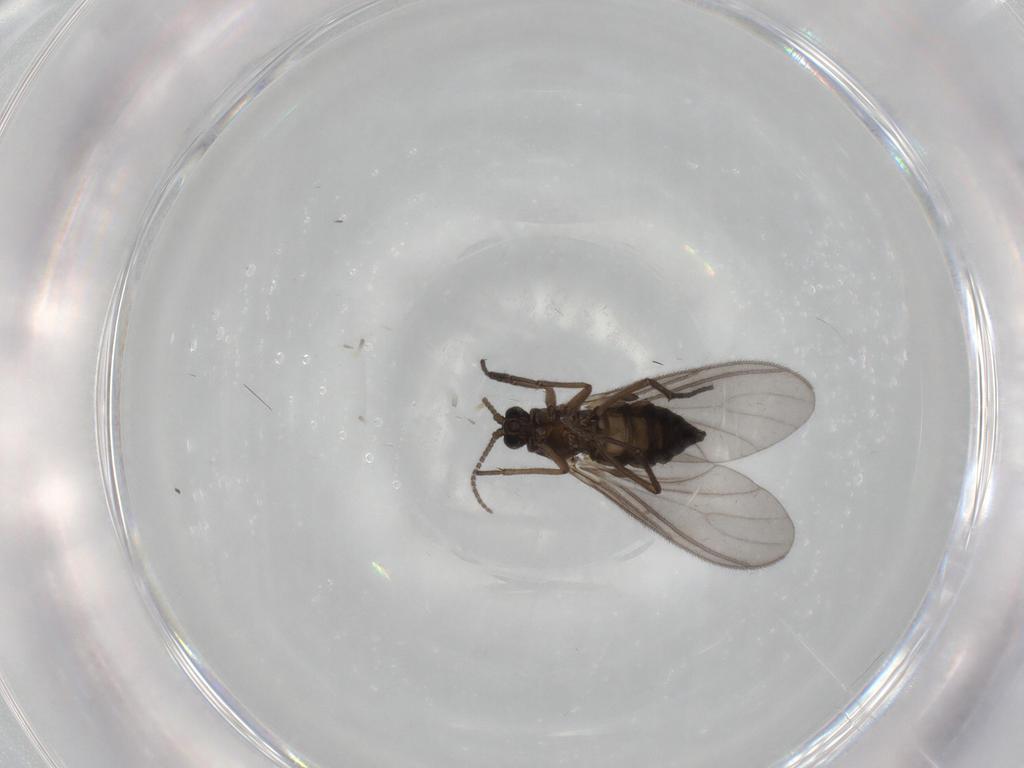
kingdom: Animalia
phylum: Arthropoda
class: Insecta
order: Diptera
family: Sciaridae
